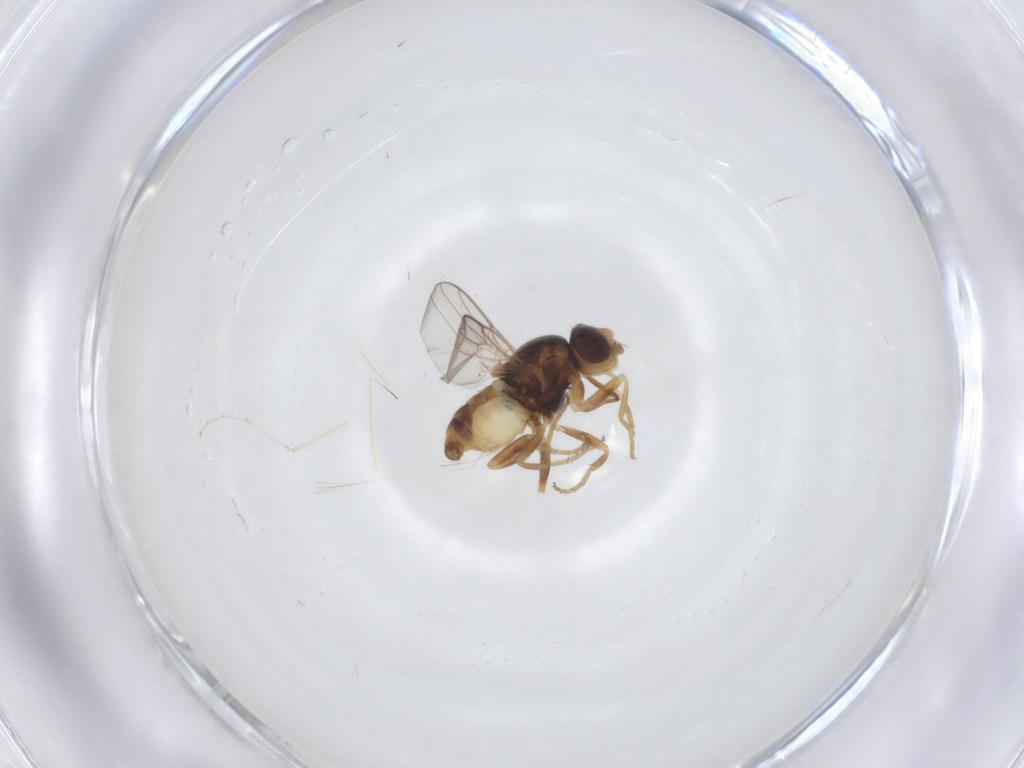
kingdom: Animalia
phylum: Arthropoda
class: Insecta
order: Diptera
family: Chloropidae
